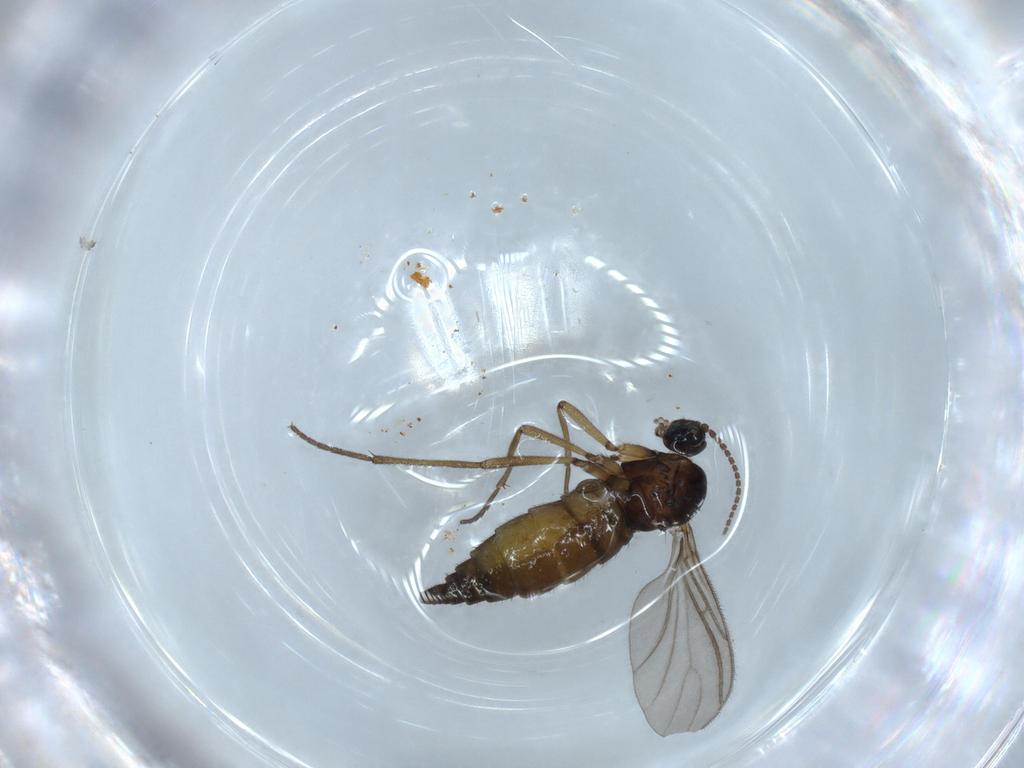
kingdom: Animalia
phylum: Arthropoda
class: Insecta
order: Diptera
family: Sciaridae
